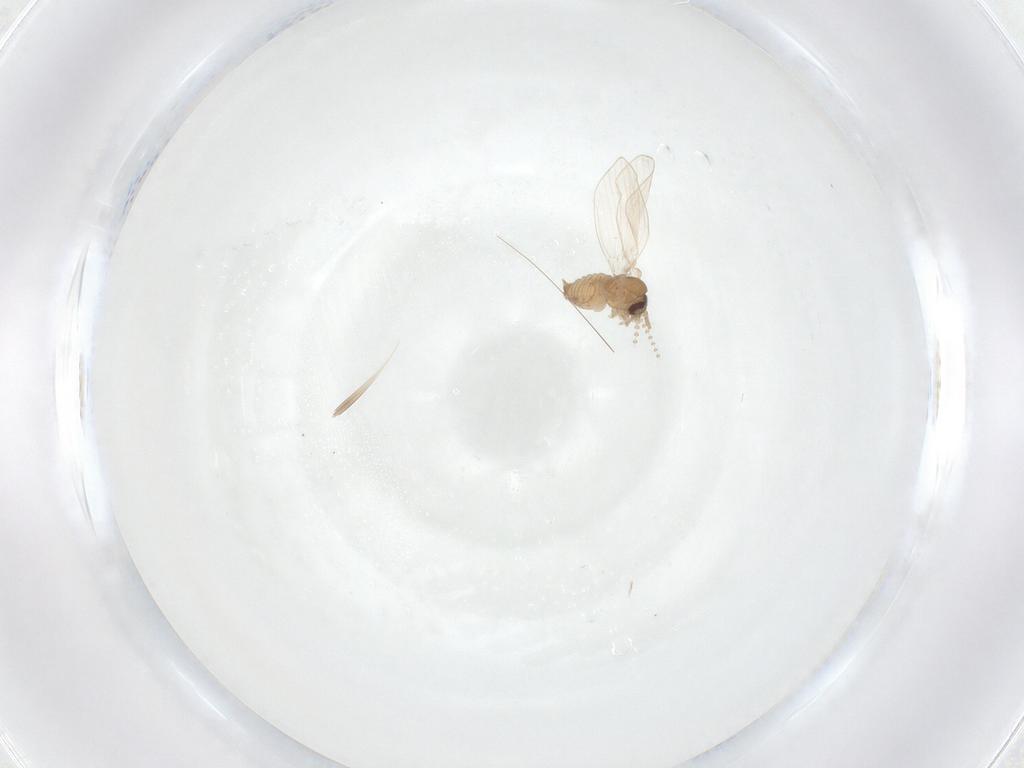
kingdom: Animalia
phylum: Arthropoda
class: Insecta
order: Diptera
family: Psychodidae
